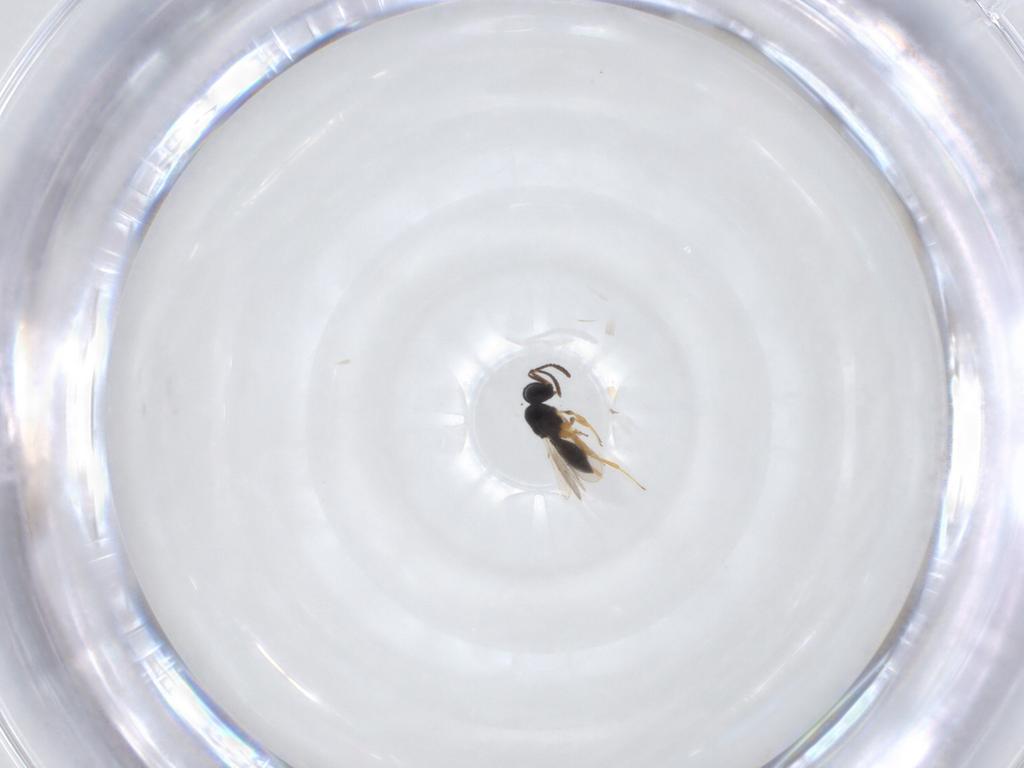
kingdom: Animalia
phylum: Arthropoda
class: Insecta
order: Hymenoptera
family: Scelionidae
